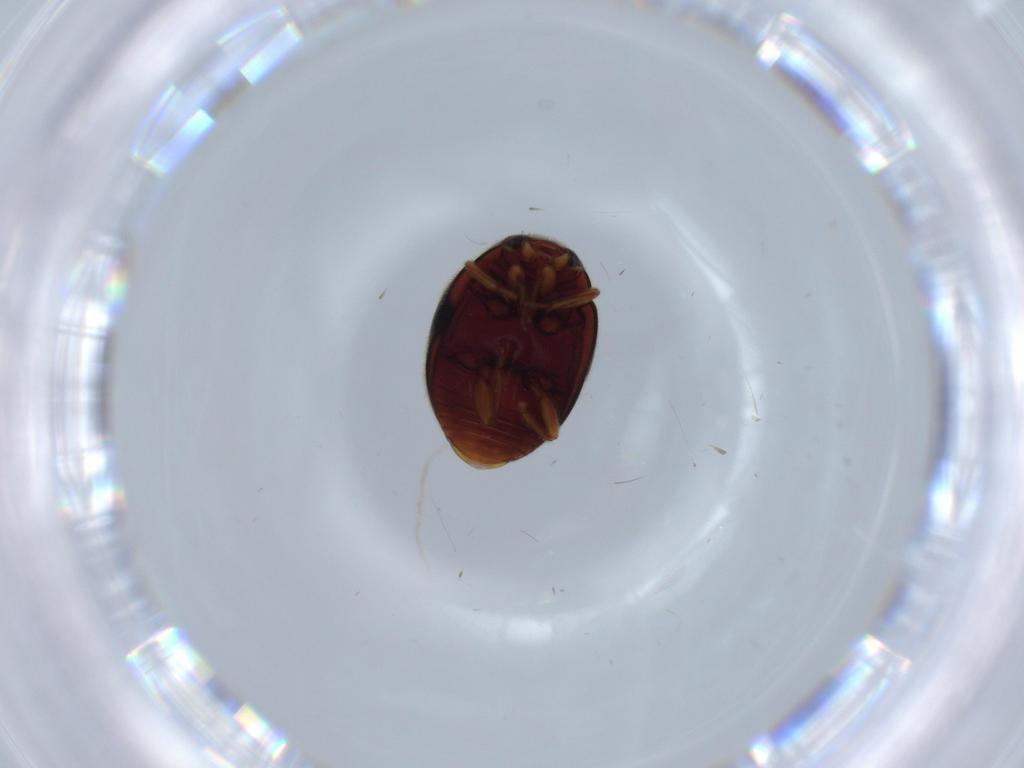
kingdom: Animalia
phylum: Arthropoda
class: Insecta
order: Coleoptera
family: Coccinellidae
